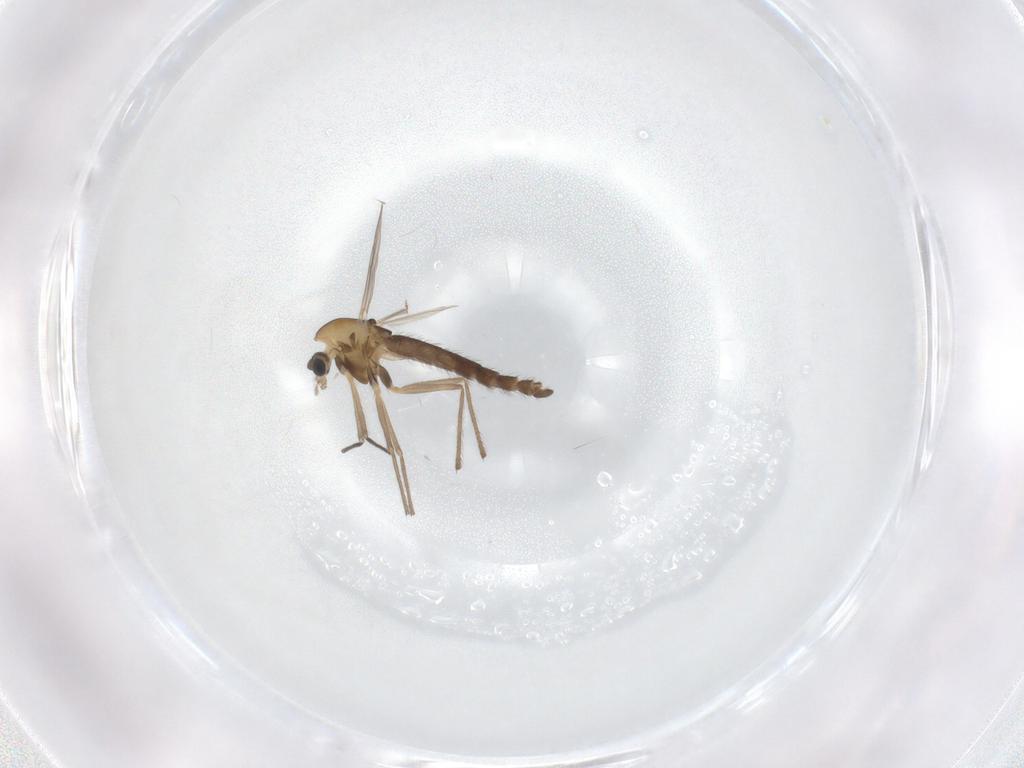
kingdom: Animalia
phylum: Arthropoda
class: Insecta
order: Diptera
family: Chironomidae
